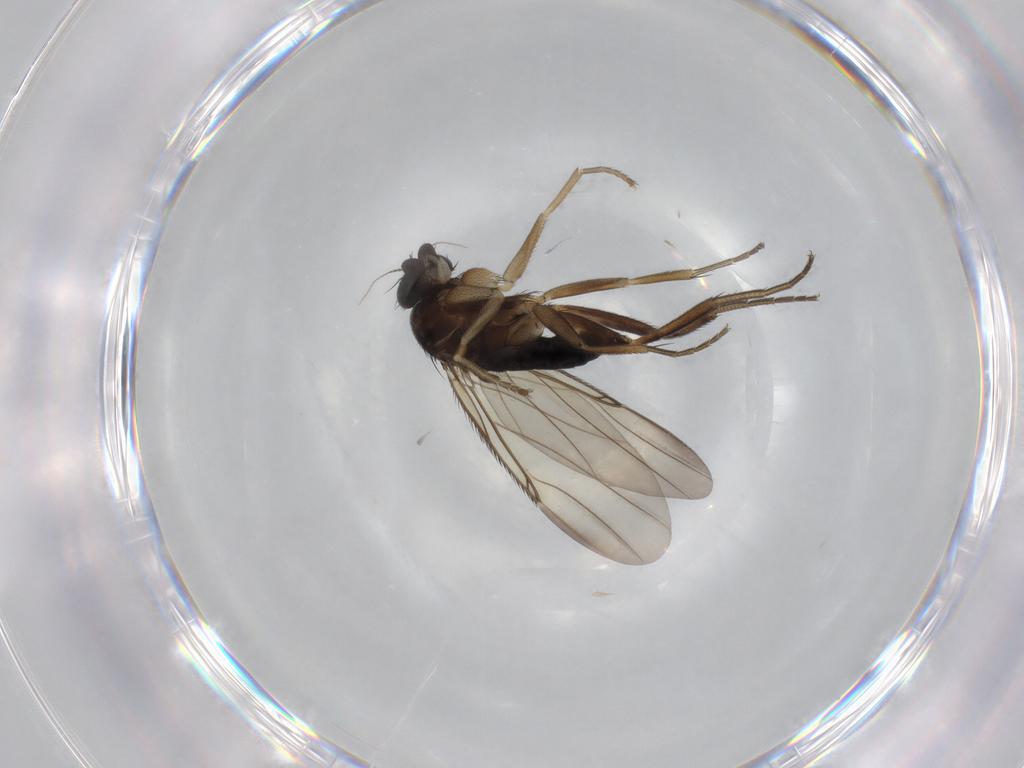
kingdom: Animalia
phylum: Arthropoda
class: Insecta
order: Diptera
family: Phoridae
